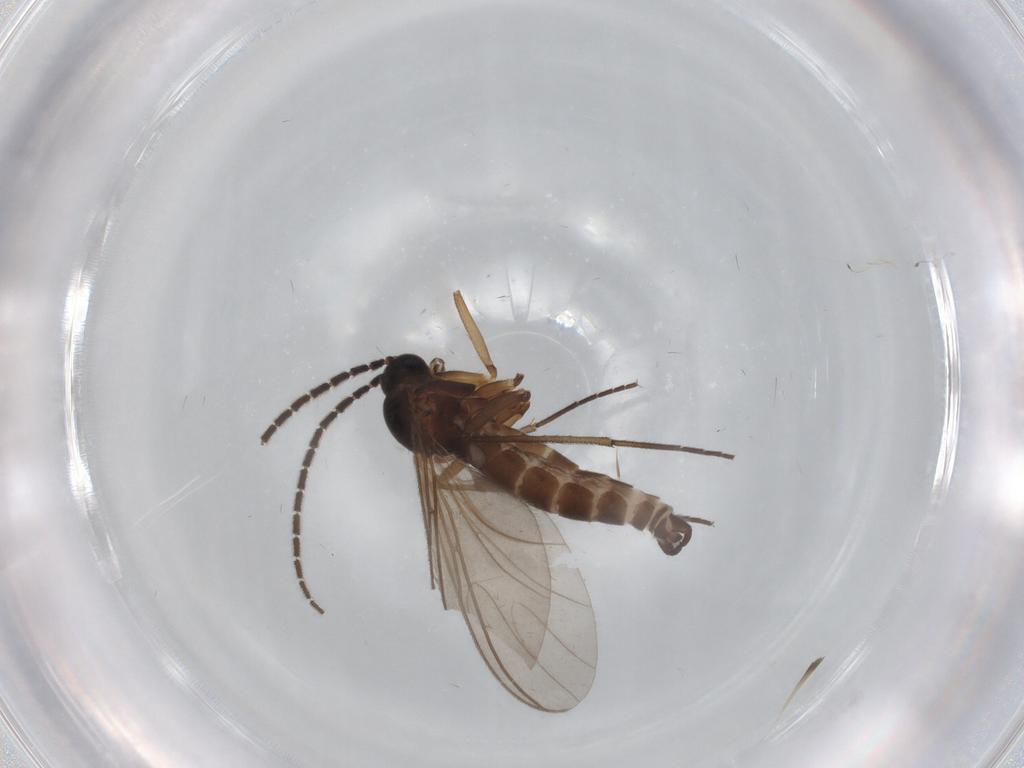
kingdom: Animalia
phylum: Arthropoda
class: Insecta
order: Diptera
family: Sciaridae
